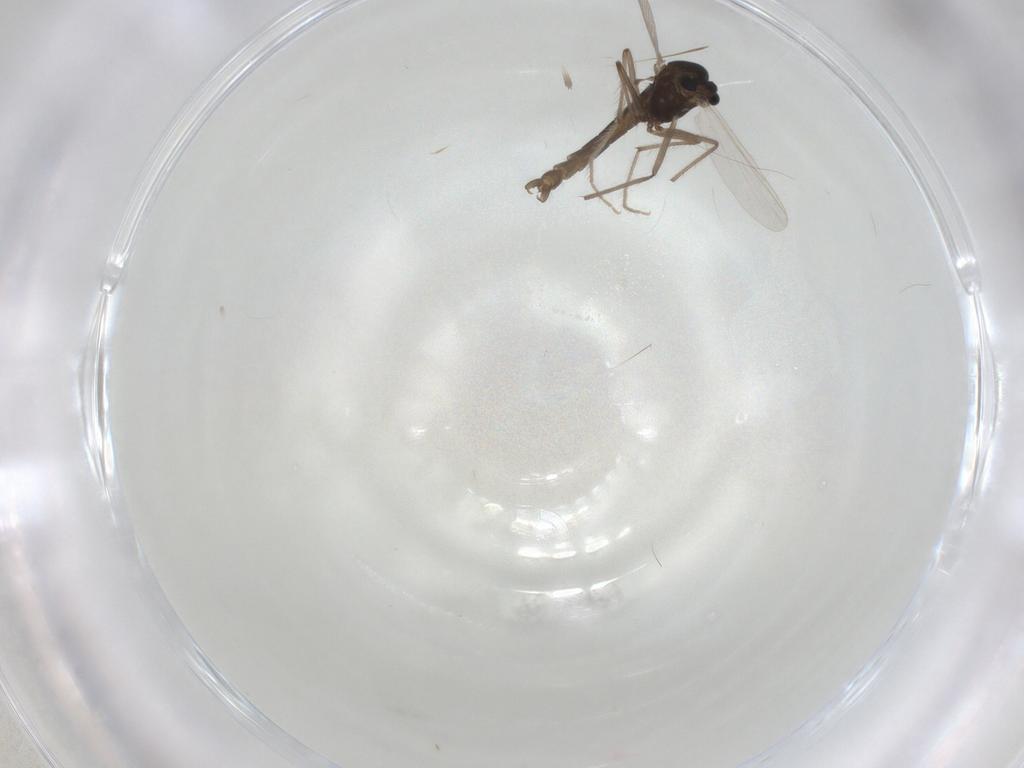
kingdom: Animalia
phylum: Arthropoda
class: Insecta
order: Diptera
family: Chironomidae
